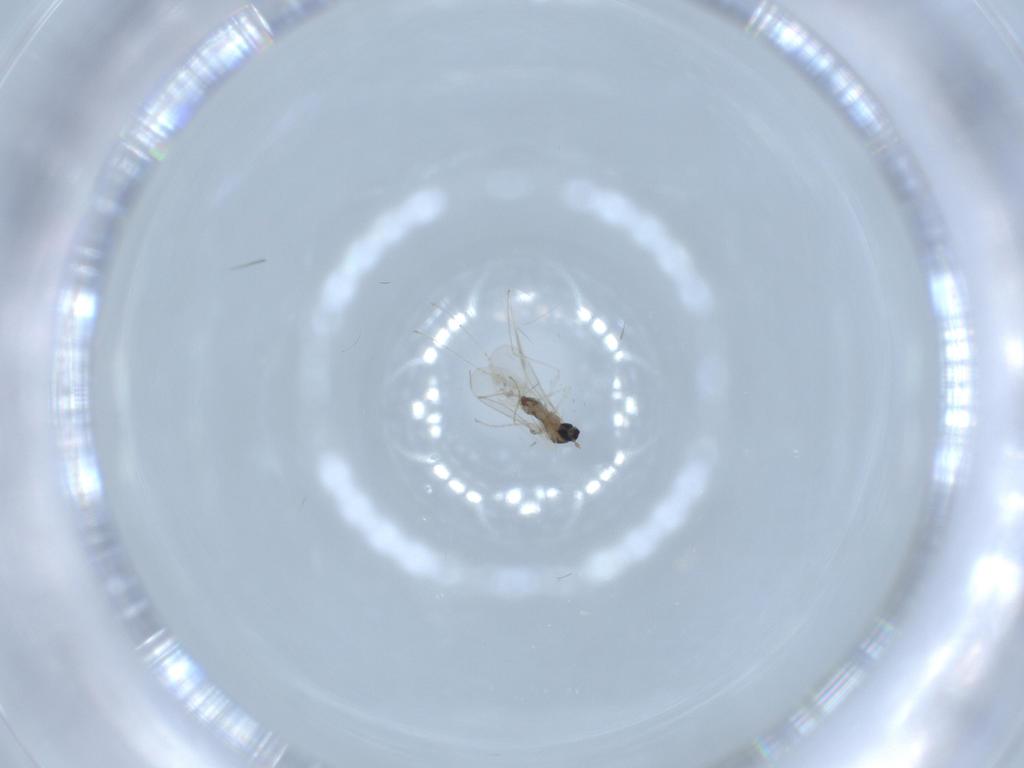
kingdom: Animalia
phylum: Arthropoda
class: Insecta
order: Diptera
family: Cecidomyiidae
